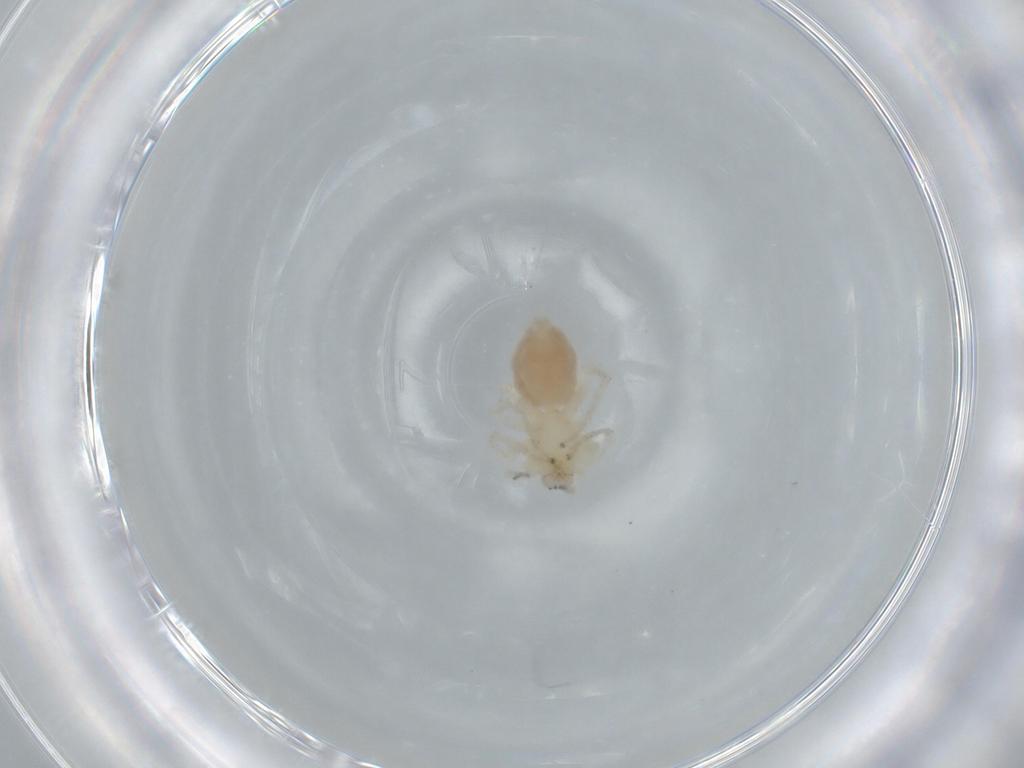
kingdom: Animalia
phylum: Arthropoda
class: Arachnida
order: Araneae
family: Anyphaenidae
